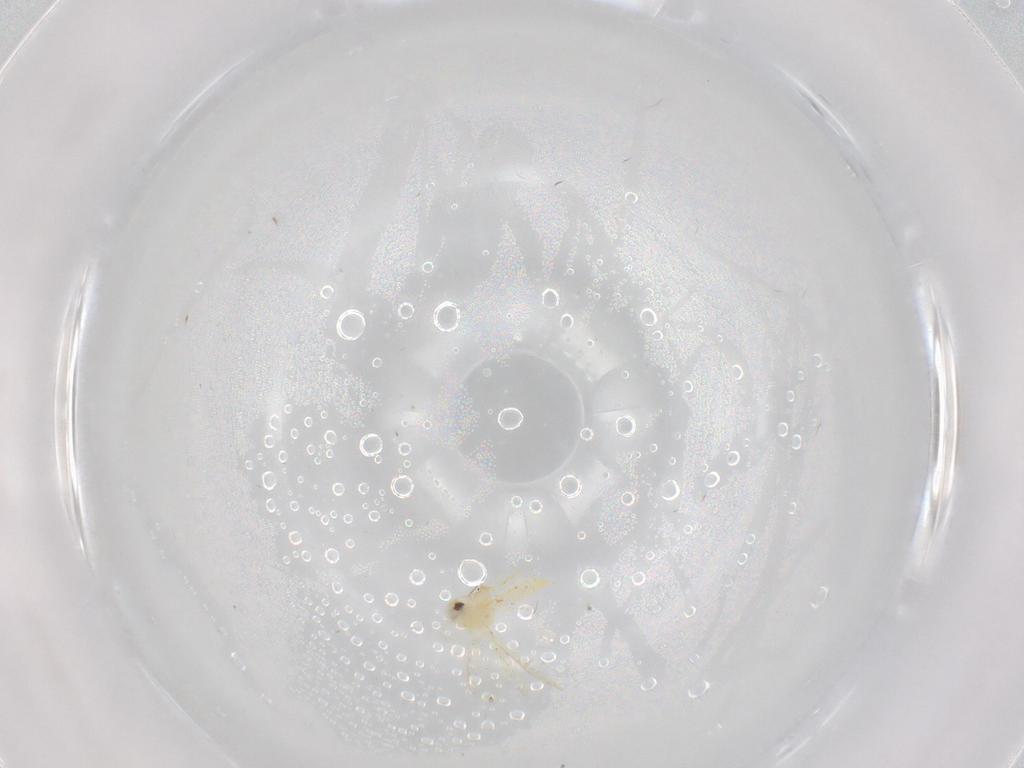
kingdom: Animalia
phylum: Arthropoda
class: Insecta
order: Hemiptera
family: Aleyrodidae
